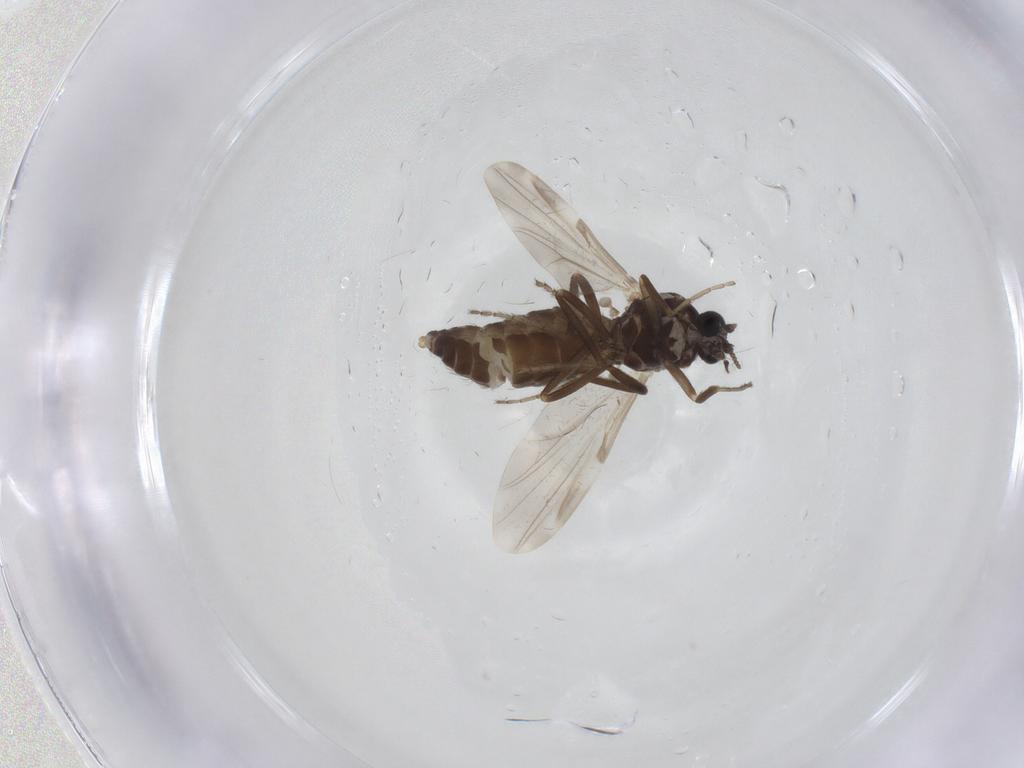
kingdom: Animalia
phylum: Arthropoda
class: Insecta
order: Diptera
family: Ceratopogonidae
